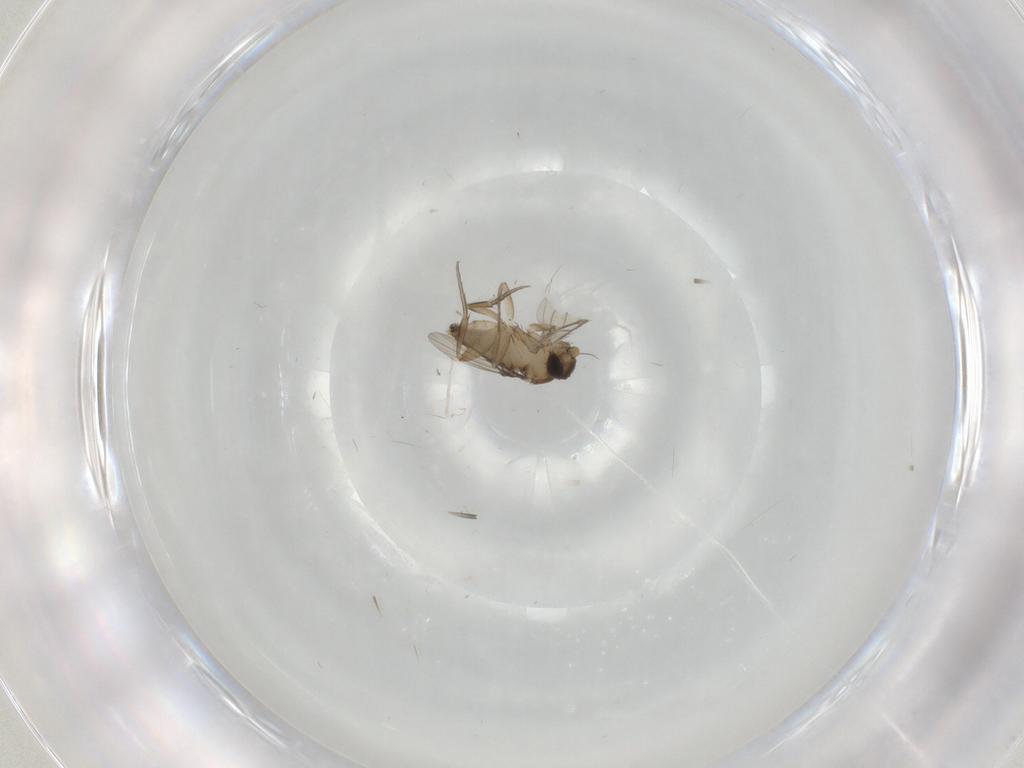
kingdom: Animalia
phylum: Arthropoda
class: Insecta
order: Diptera
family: Phoridae
